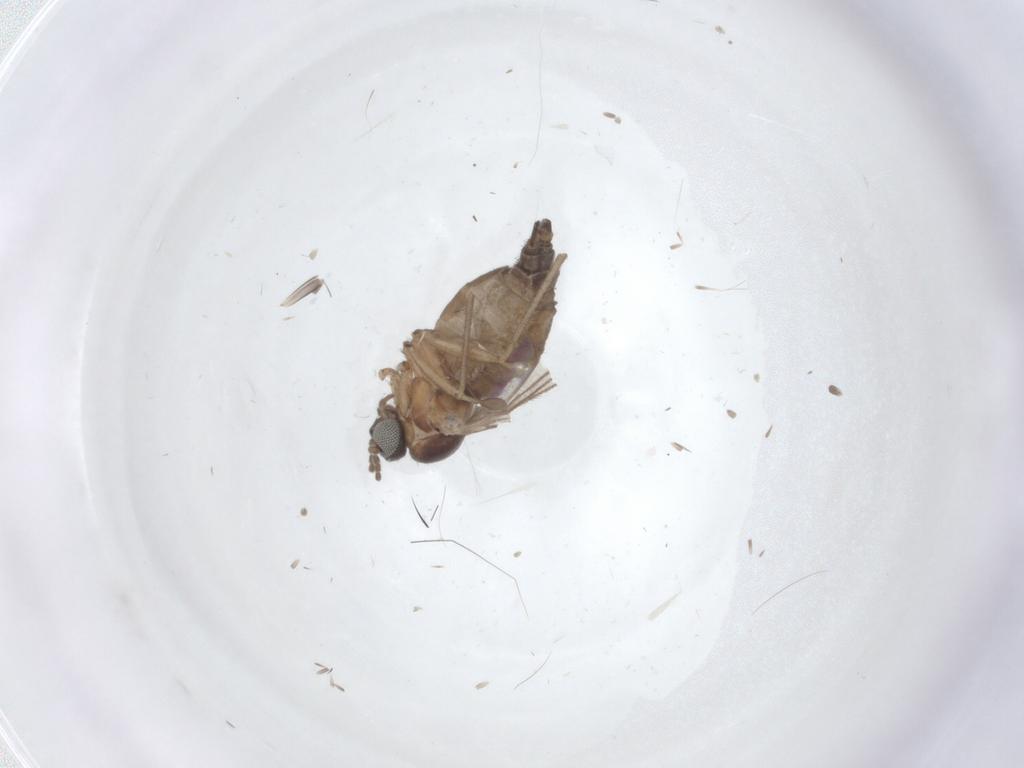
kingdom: Animalia
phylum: Arthropoda
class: Insecta
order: Diptera
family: Sciaridae
